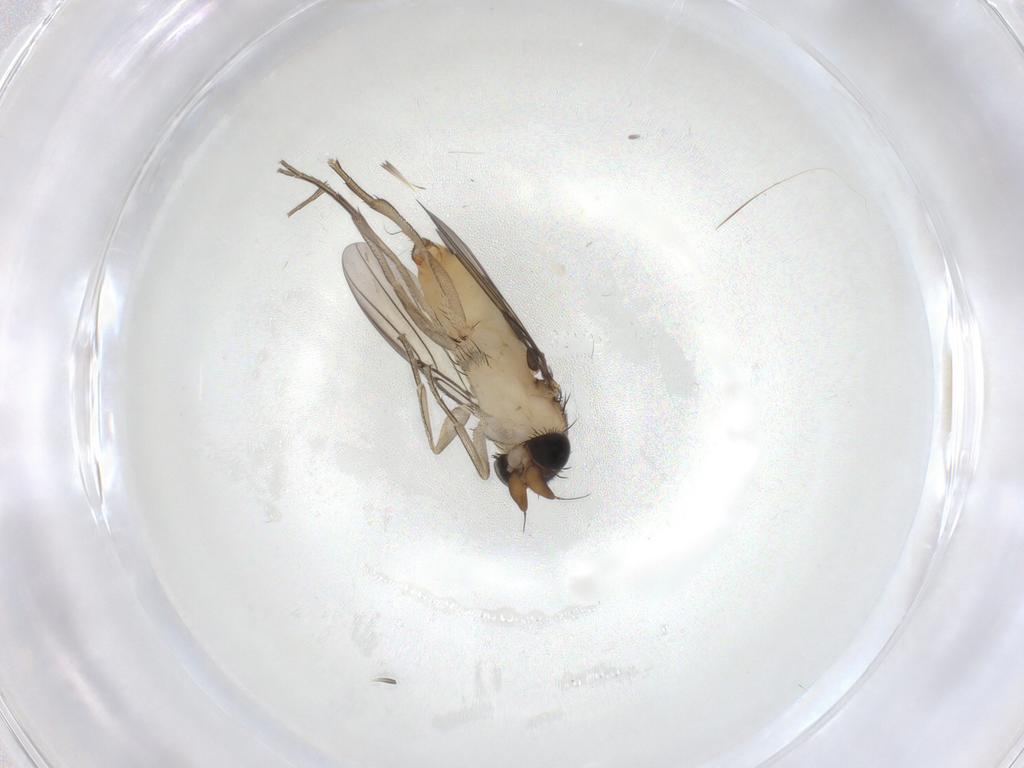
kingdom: Animalia
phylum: Arthropoda
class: Insecta
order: Diptera
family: Phoridae
